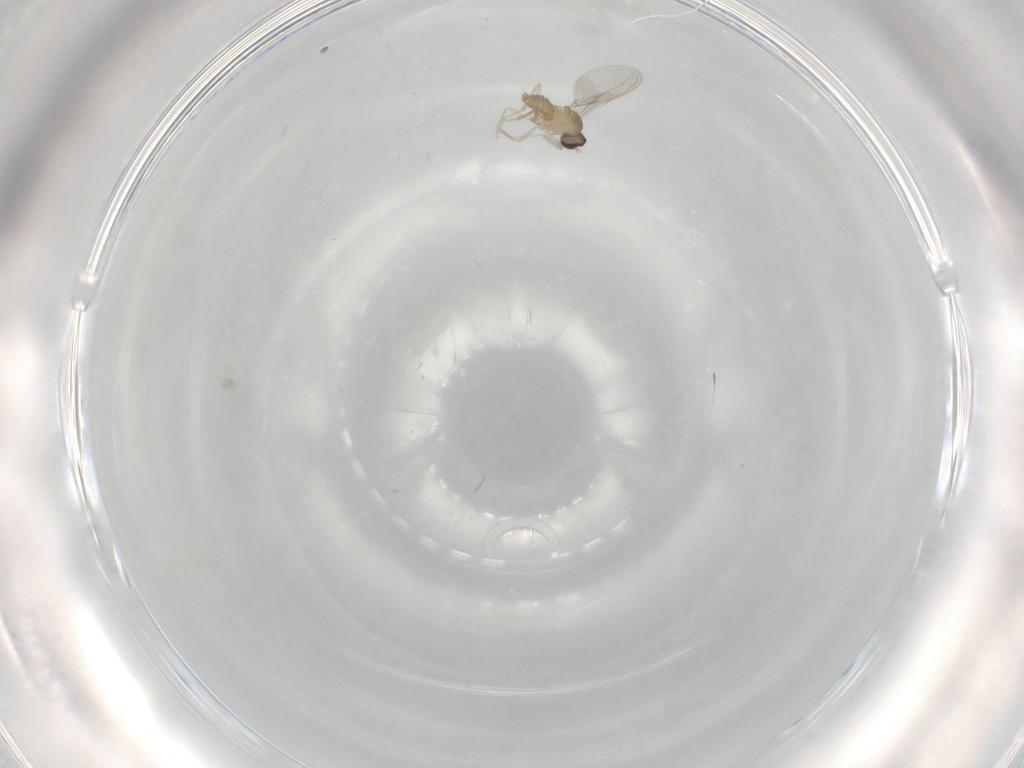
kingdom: Animalia
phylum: Arthropoda
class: Insecta
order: Diptera
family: Cecidomyiidae
